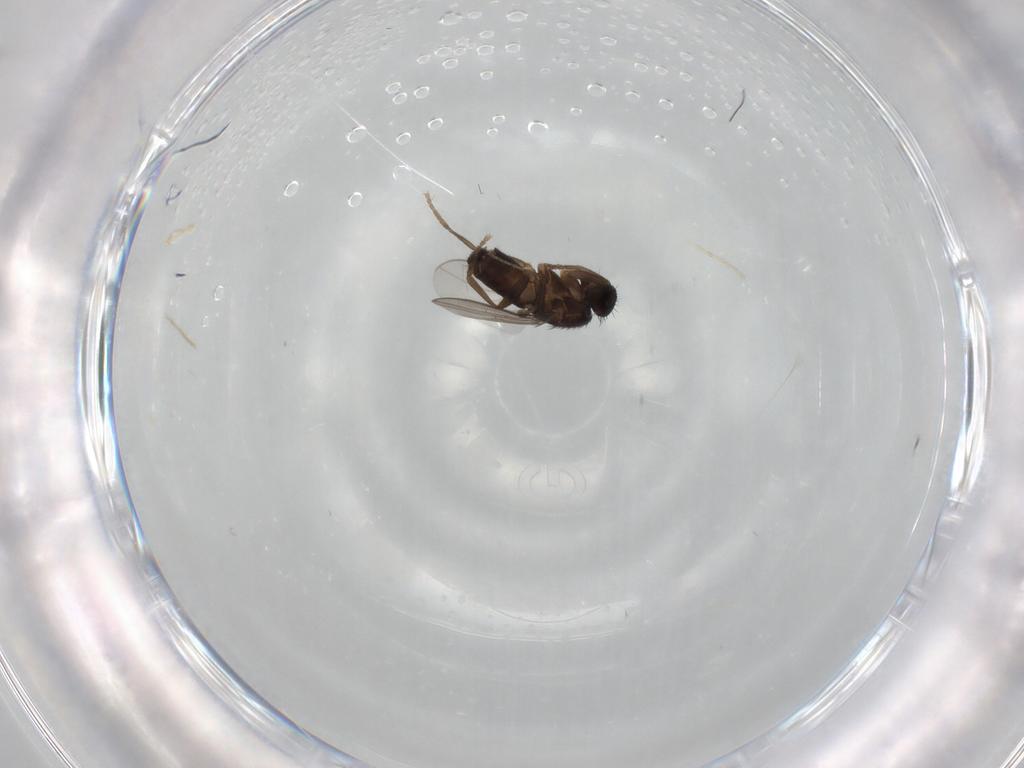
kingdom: Animalia
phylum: Arthropoda
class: Insecta
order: Diptera
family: Sphaeroceridae
